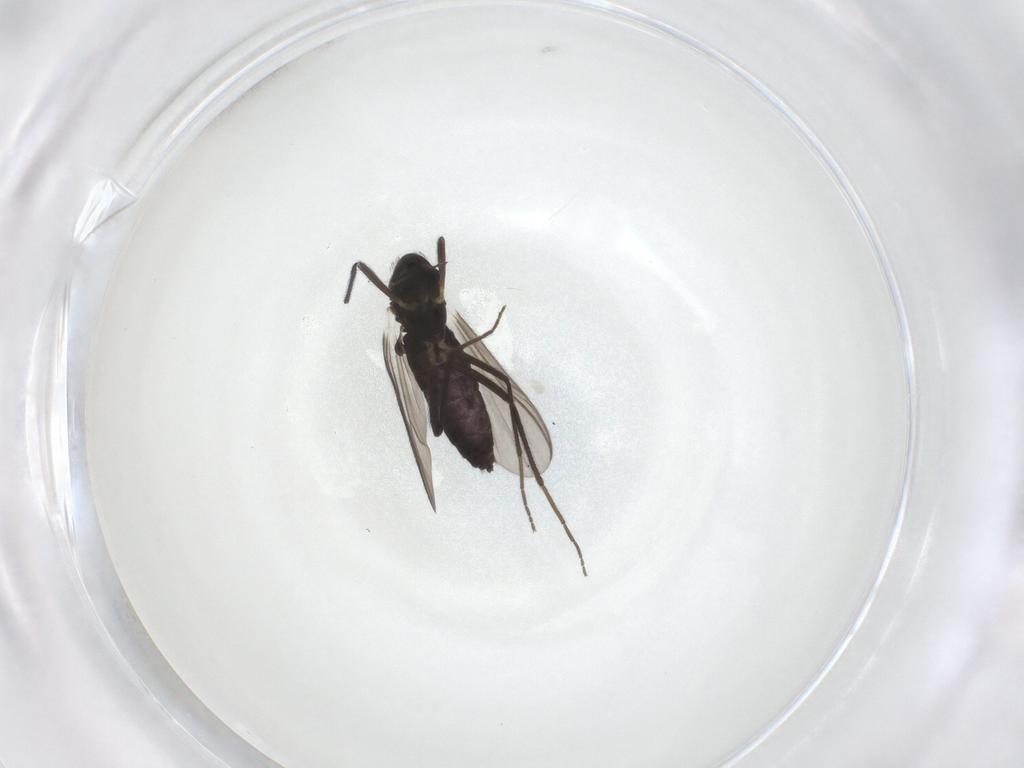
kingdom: Animalia
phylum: Arthropoda
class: Insecta
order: Diptera
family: Chironomidae
